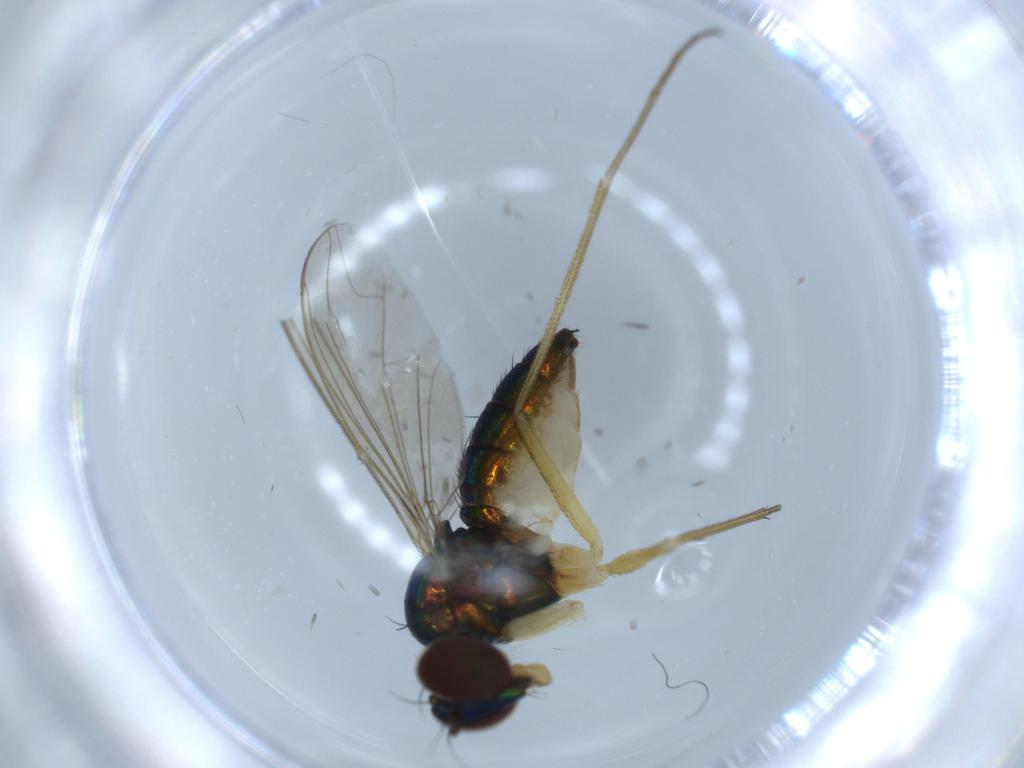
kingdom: Animalia
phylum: Arthropoda
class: Insecta
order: Diptera
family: Dolichopodidae
